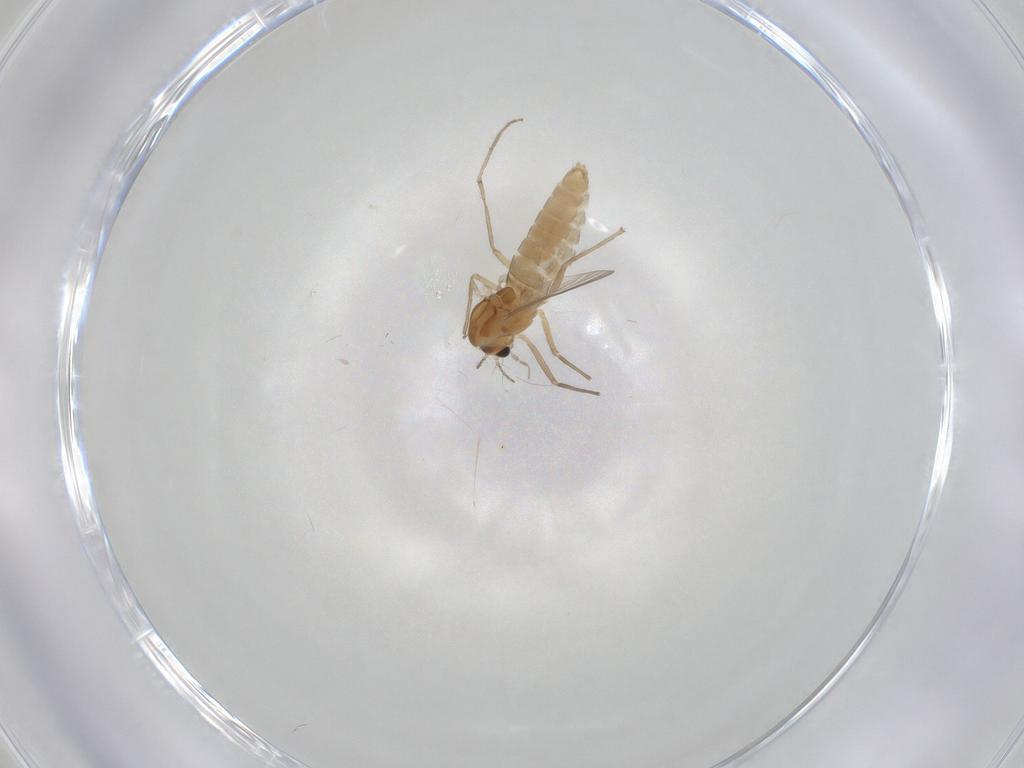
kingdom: Animalia
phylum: Arthropoda
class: Insecta
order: Diptera
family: Chironomidae
